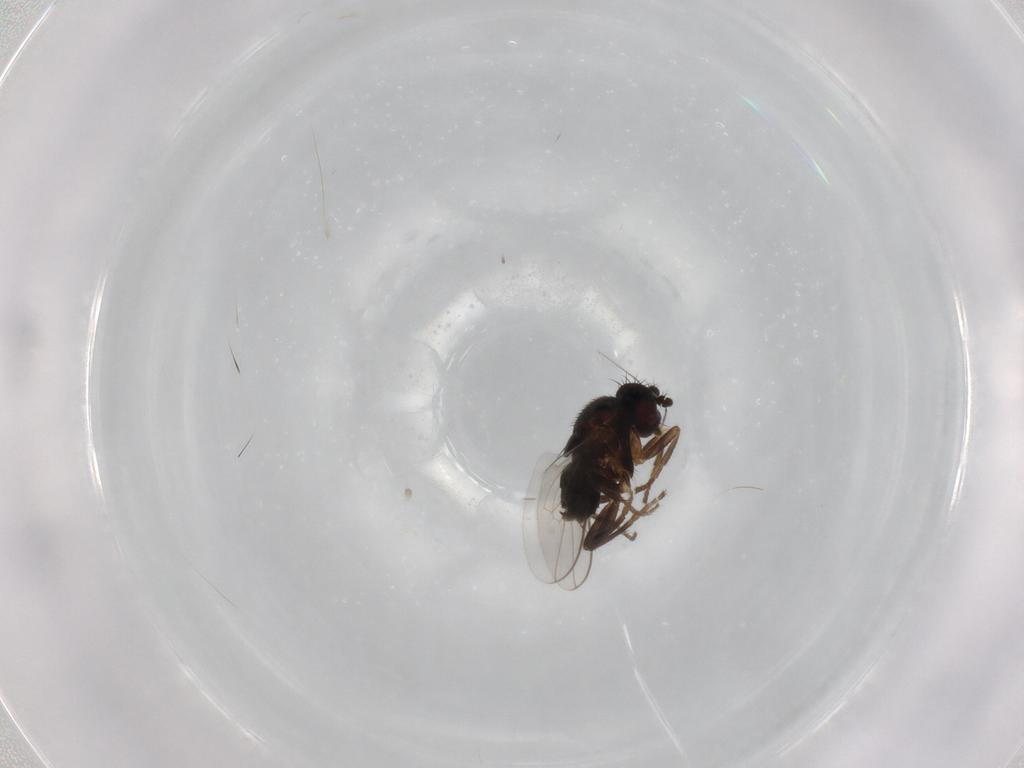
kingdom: Animalia
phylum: Arthropoda
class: Insecta
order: Diptera
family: Sphaeroceridae
